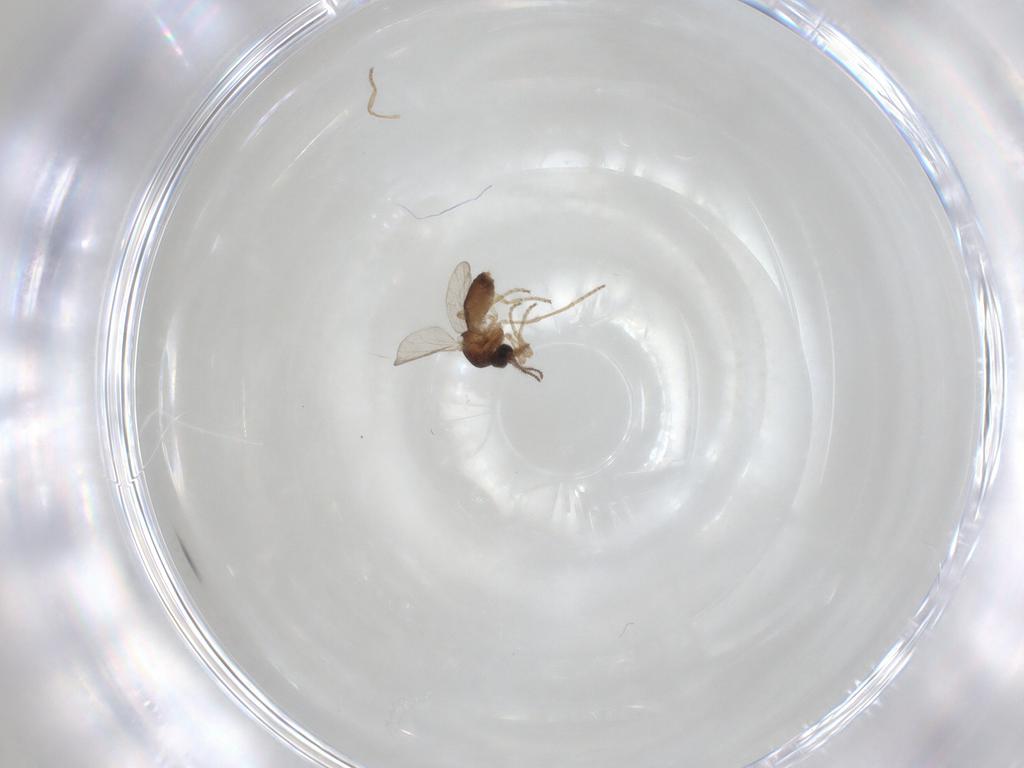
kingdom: Animalia
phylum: Arthropoda
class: Insecta
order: Diptera
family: Ceratopogonidae
